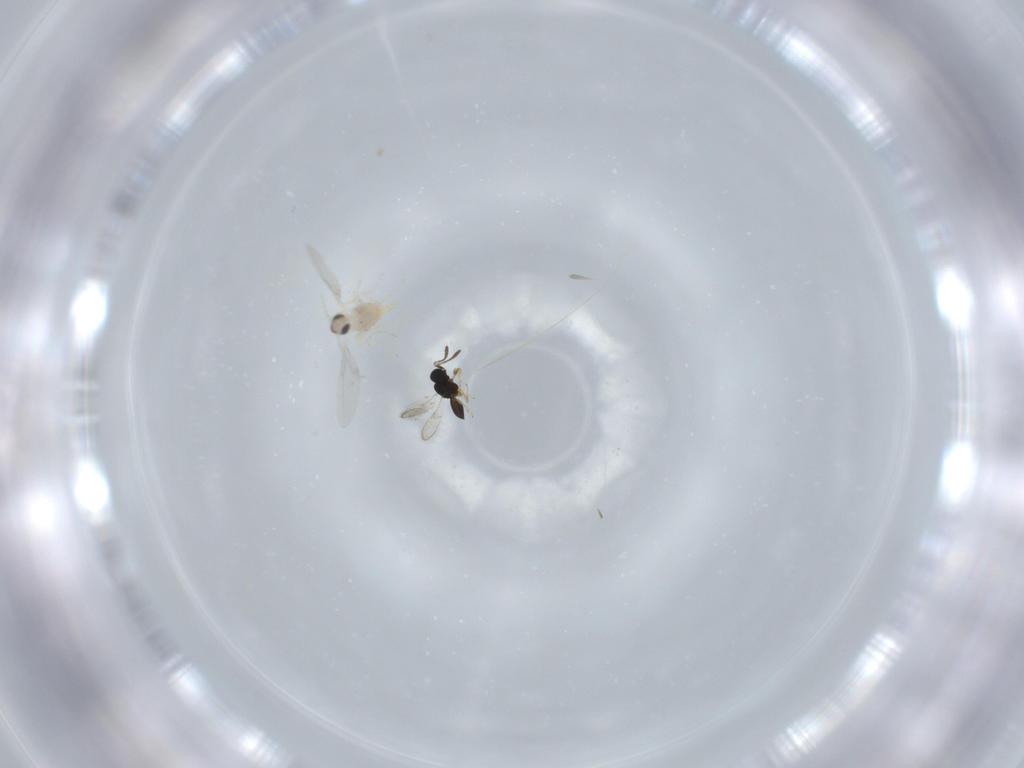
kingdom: Animalia
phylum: Arthropoda
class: Insecta
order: Diptera
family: Cecidomyiidae
